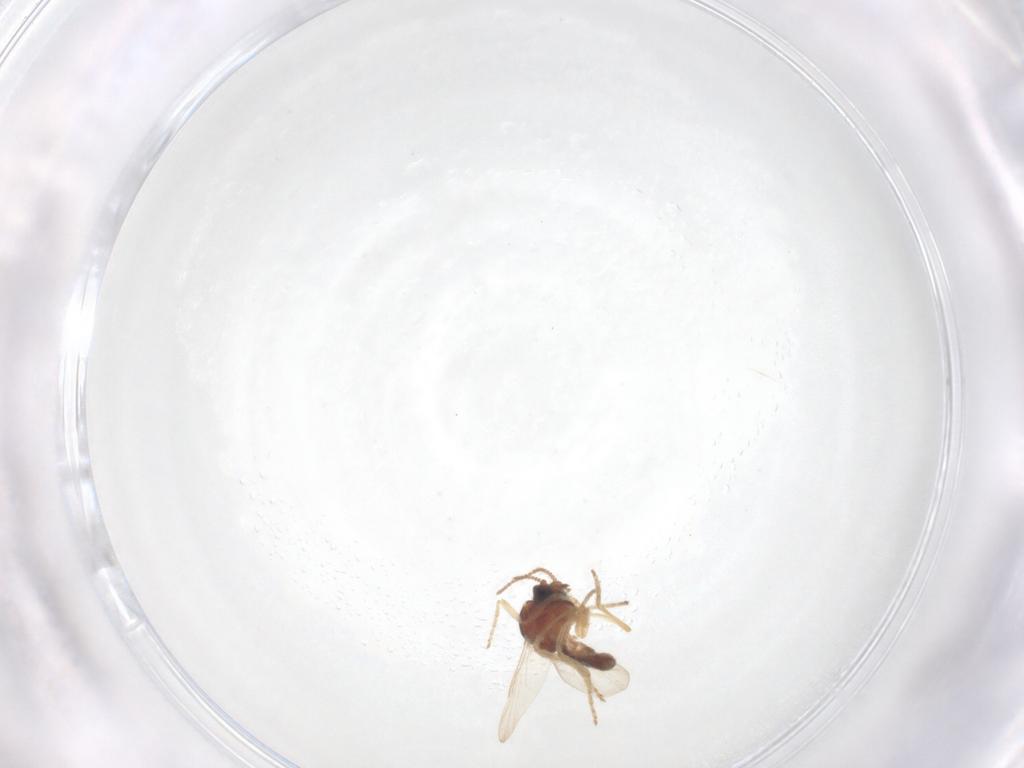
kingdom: Animalia
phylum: Arthropoda
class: Insecta
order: Diptera
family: Ceratopogonidae
